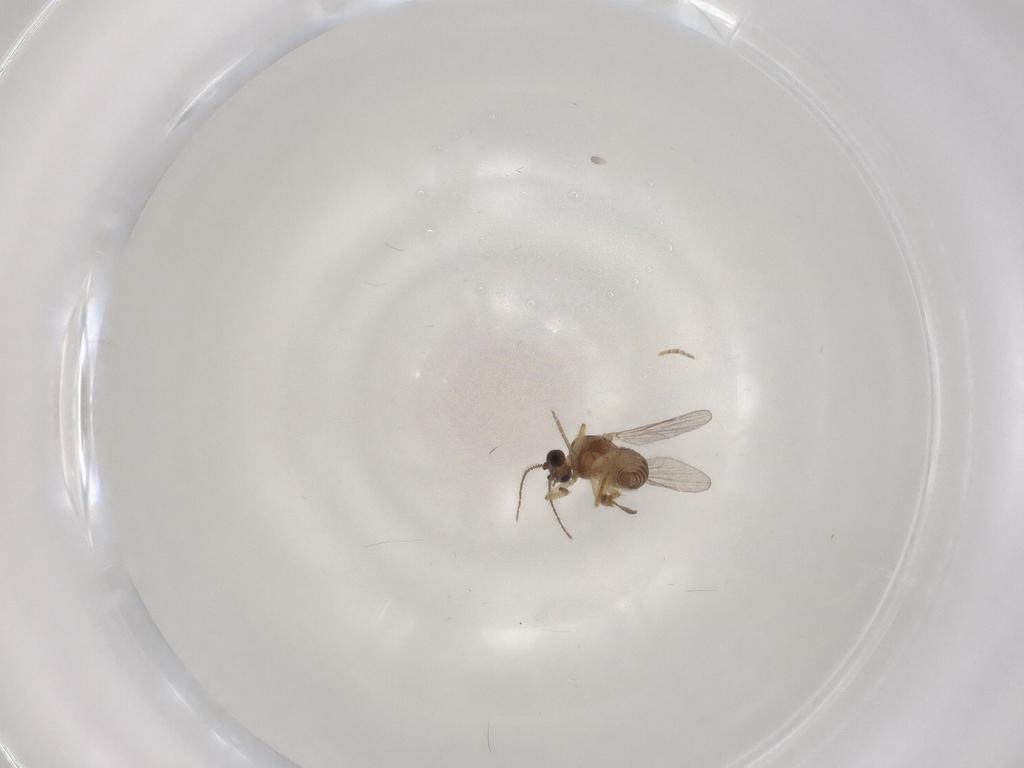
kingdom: Animalia
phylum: Arthropoda
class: Insecta
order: Diptera
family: Ceratopogonidae
